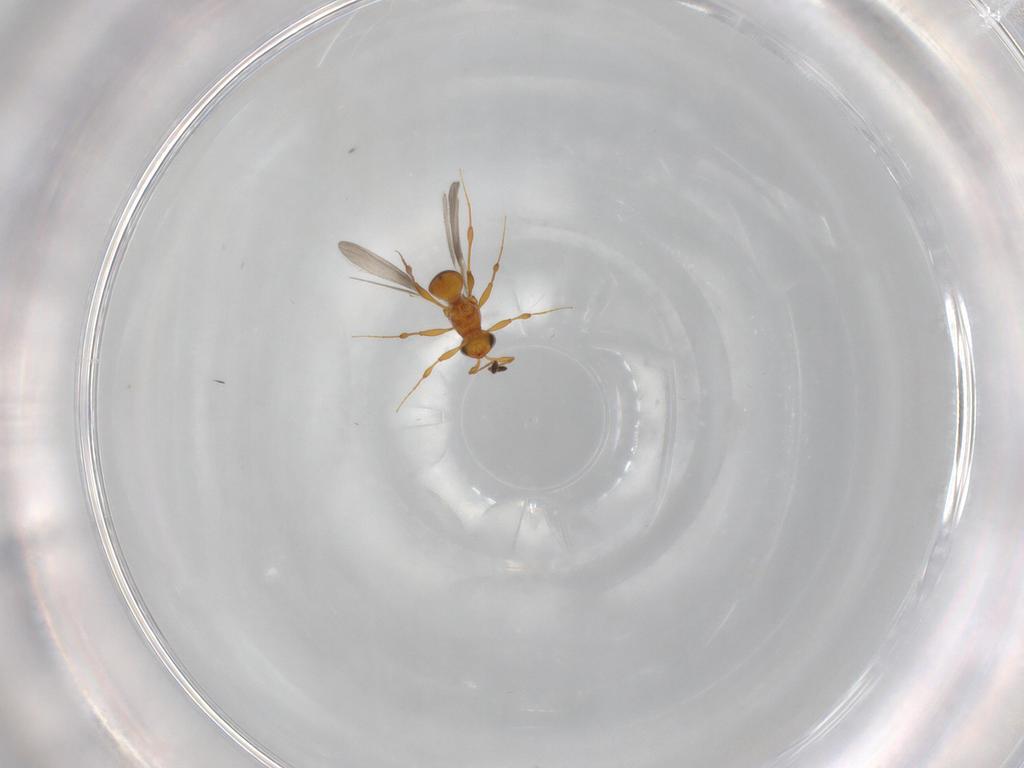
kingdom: Animalia
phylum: Arthropoda
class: Insecta
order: Hymenoptera
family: Platygastridae
